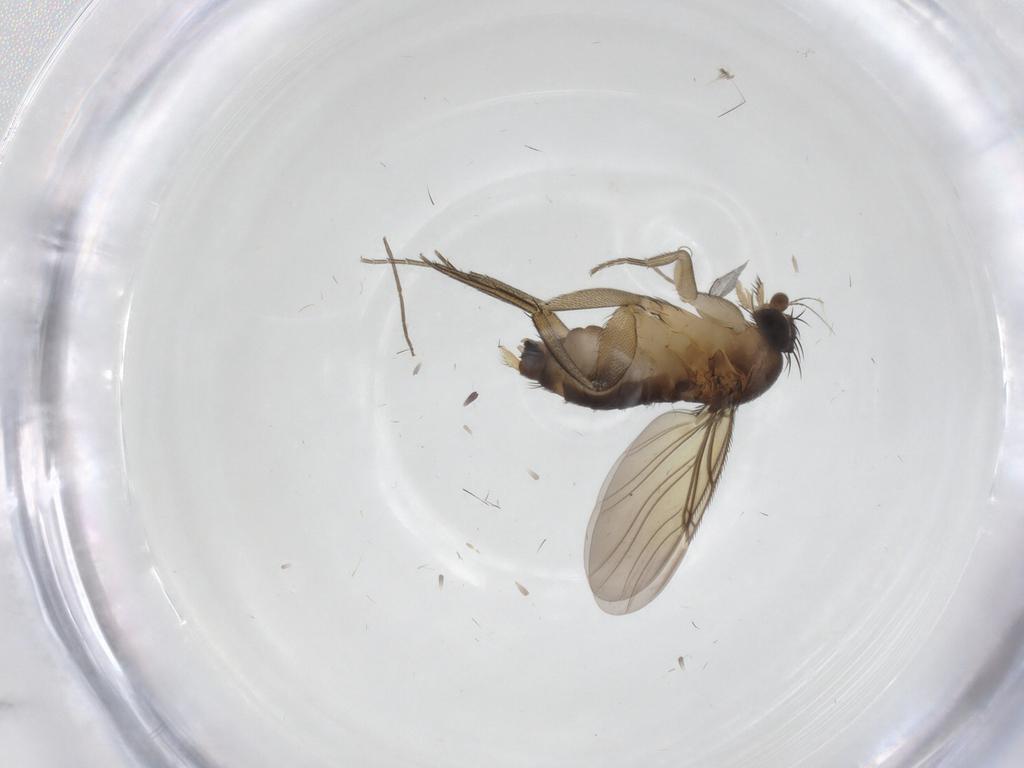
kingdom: Animalia
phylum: Arthropoda
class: Insecta
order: Diptera
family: Phoridae
